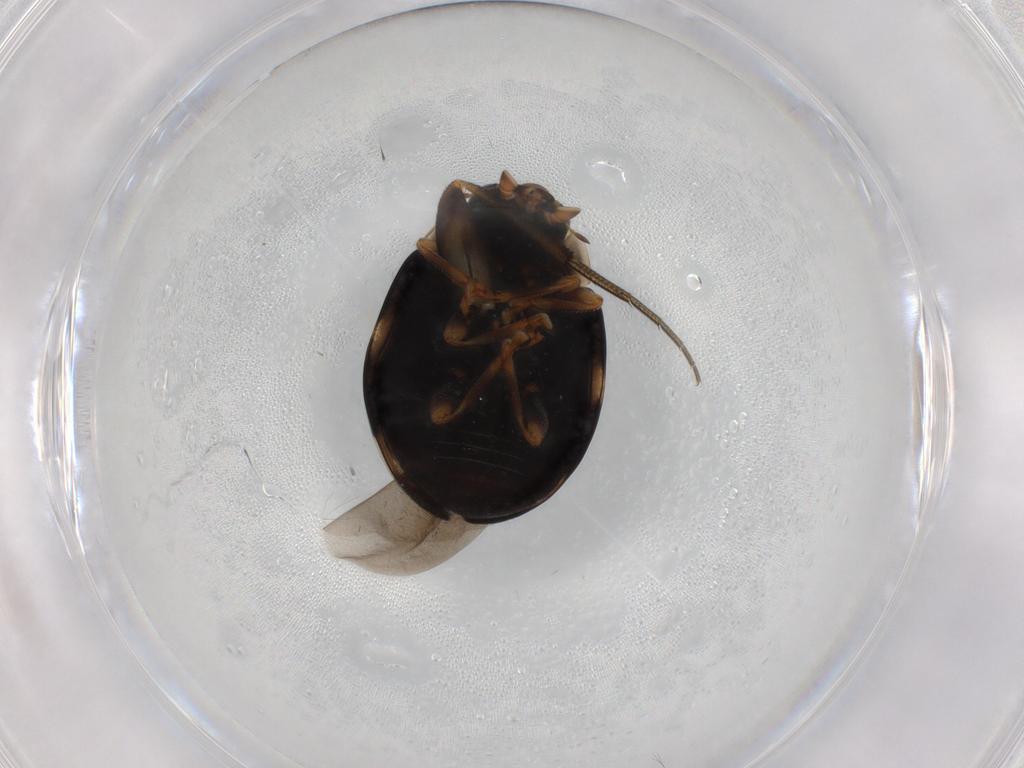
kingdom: Animalia
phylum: Arthropoda
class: Insecta
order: Coleoptera
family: Coccinellidae
